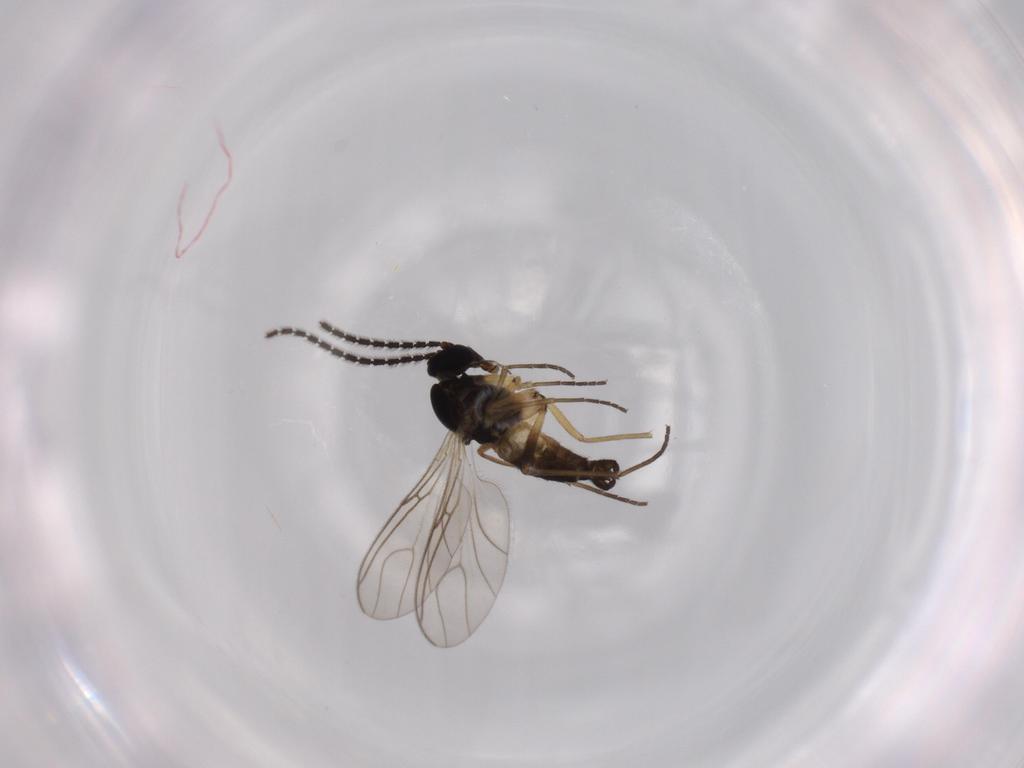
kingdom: Animalia
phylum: Arthropoda
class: Insecta
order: Diptera
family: Sciaridae
